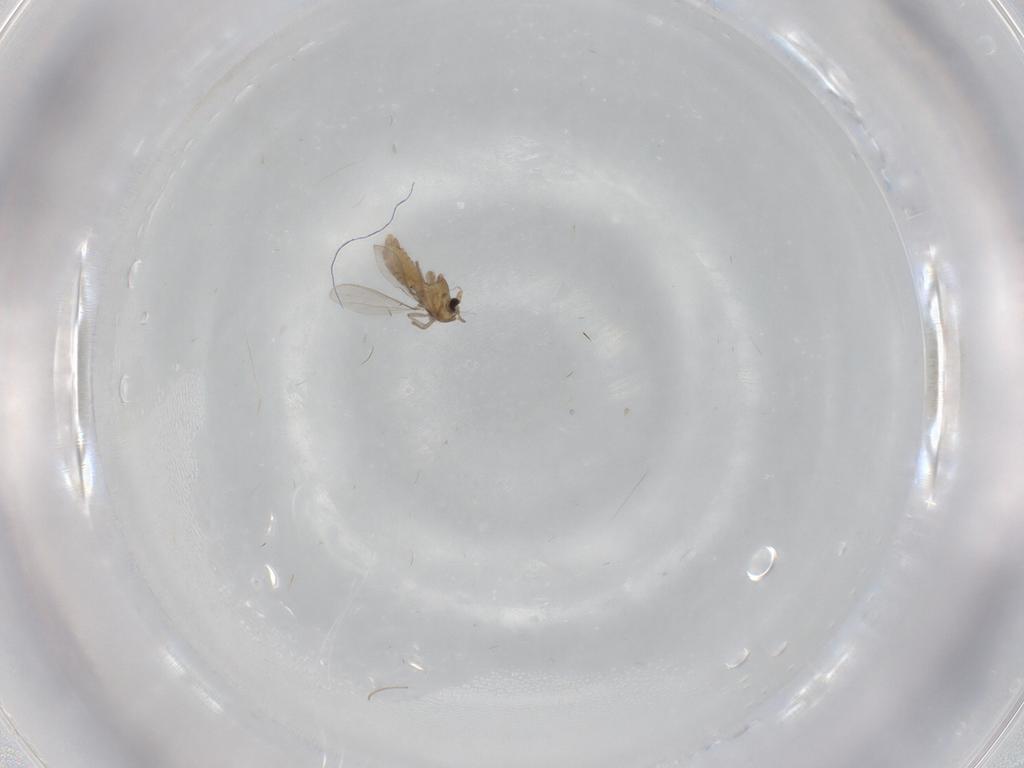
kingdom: Animalia
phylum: Arthropoda
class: Insecta
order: Diptera
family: Chironomidae
